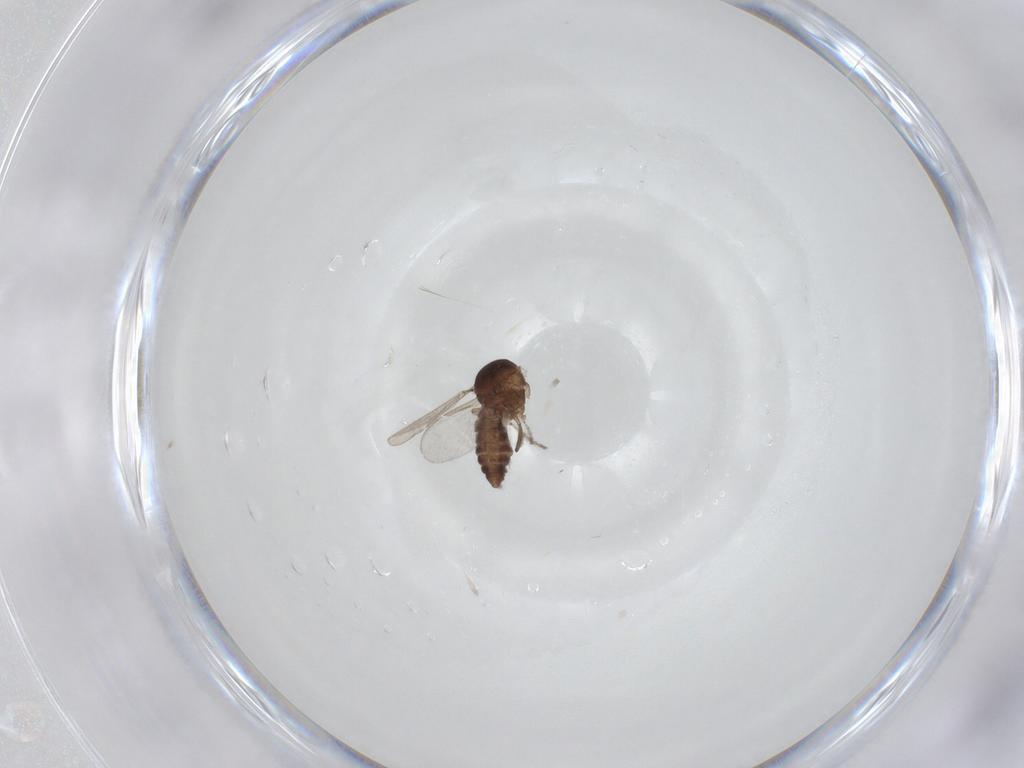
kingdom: Animalia
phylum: Arthropoda
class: Insecta
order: Diptera
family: Ceratopogonidae
